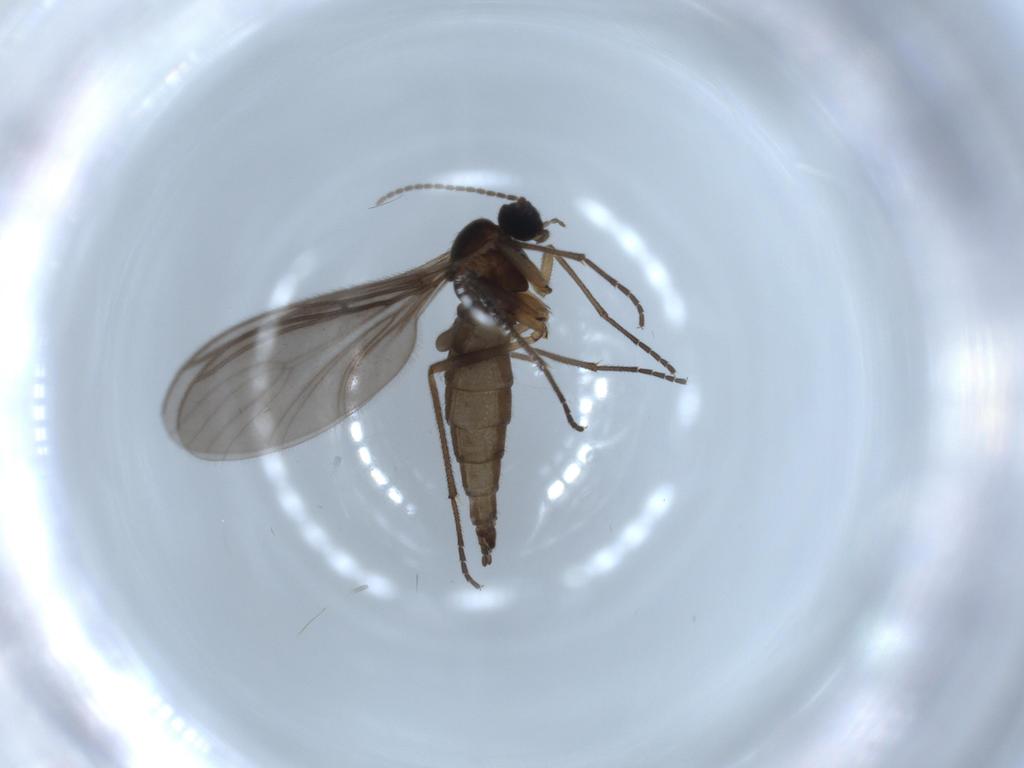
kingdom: Animalia
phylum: Arthropoda
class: Insecta
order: Diptera
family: Sciaridae
